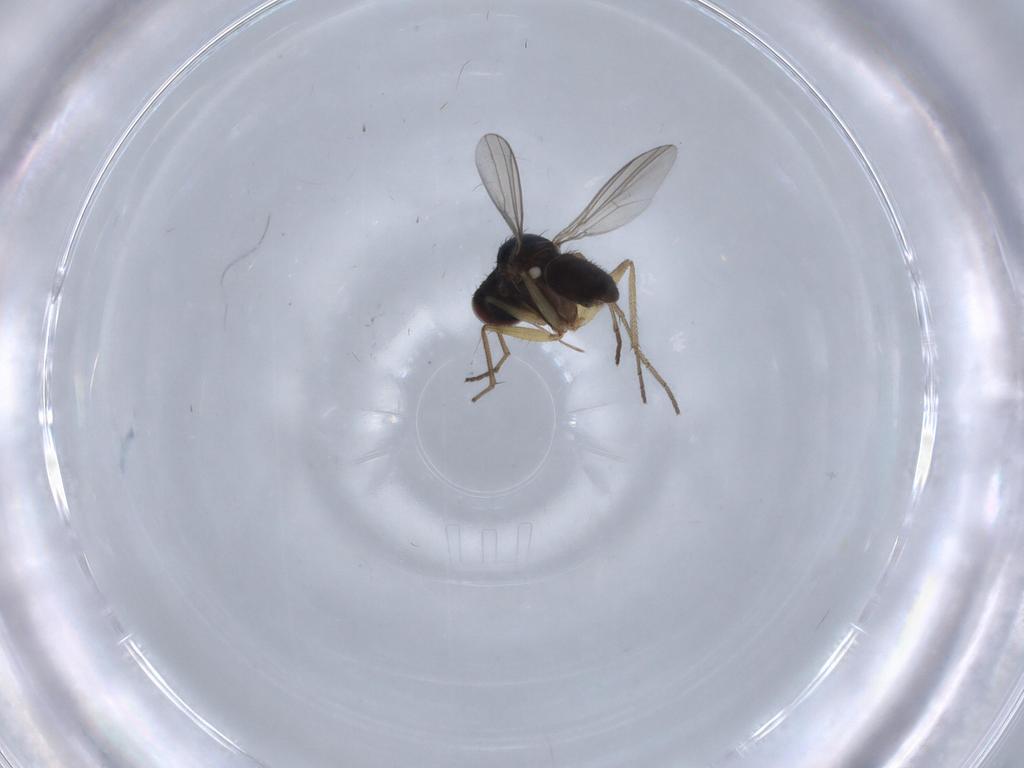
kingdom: Animalia
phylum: Arthropoda
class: Insecta
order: Diptera
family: Dolichopodidae
